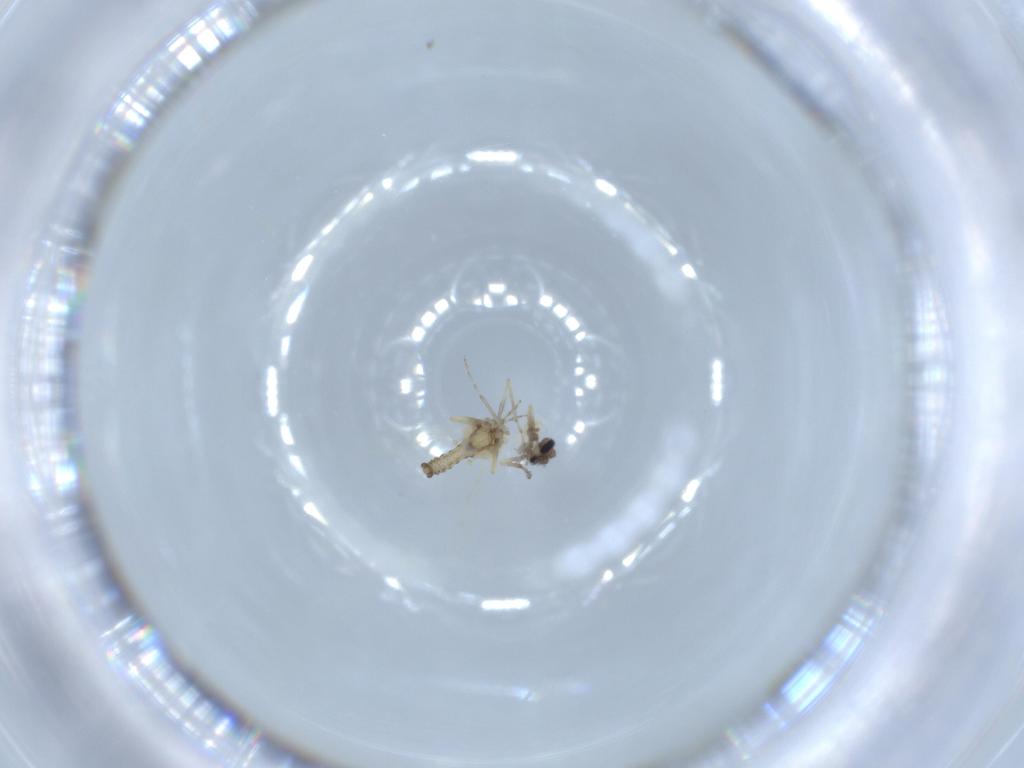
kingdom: Animalia
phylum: Arthropoda
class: Insecta
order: Diptera
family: Ceratopogonidae
